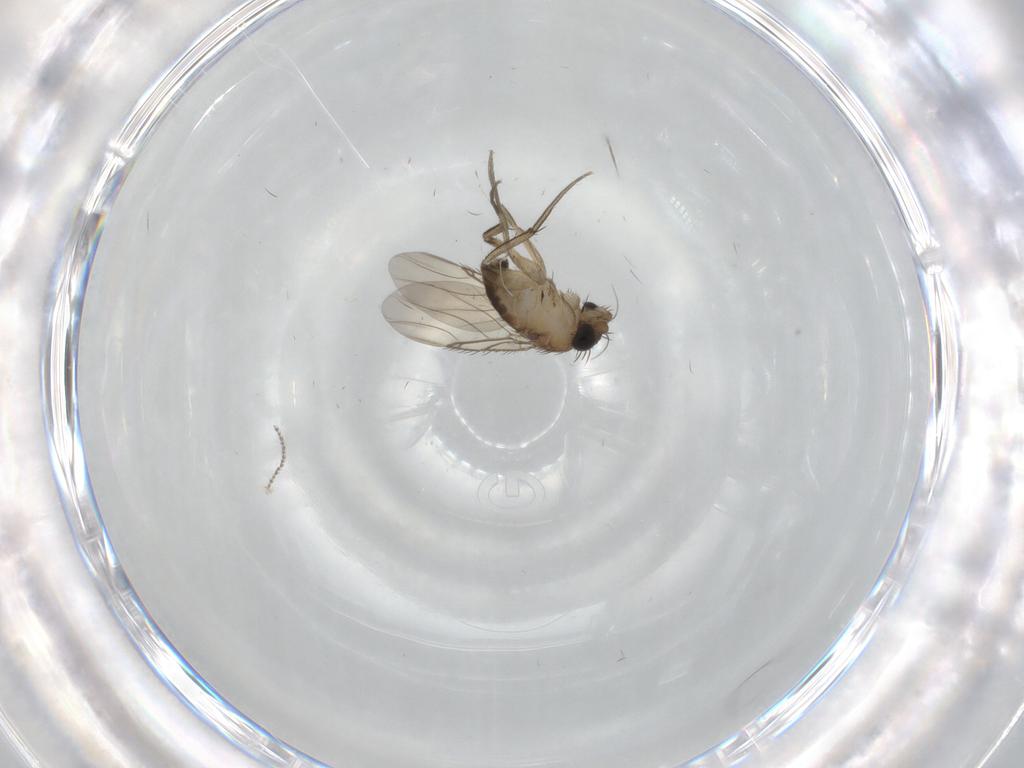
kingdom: Animalia
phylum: Arthropoda
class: Insecta
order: Diptera
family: Phoridae
